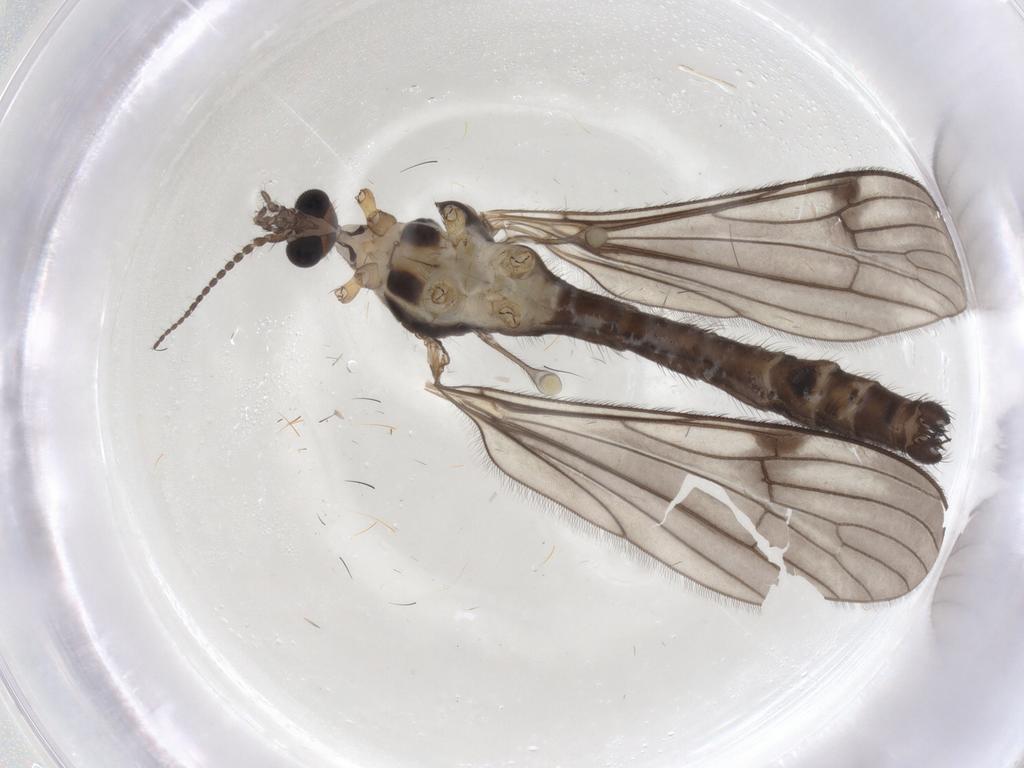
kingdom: Animalia
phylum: Arthropoda
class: Insecta
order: Diptera
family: Limoniidae
